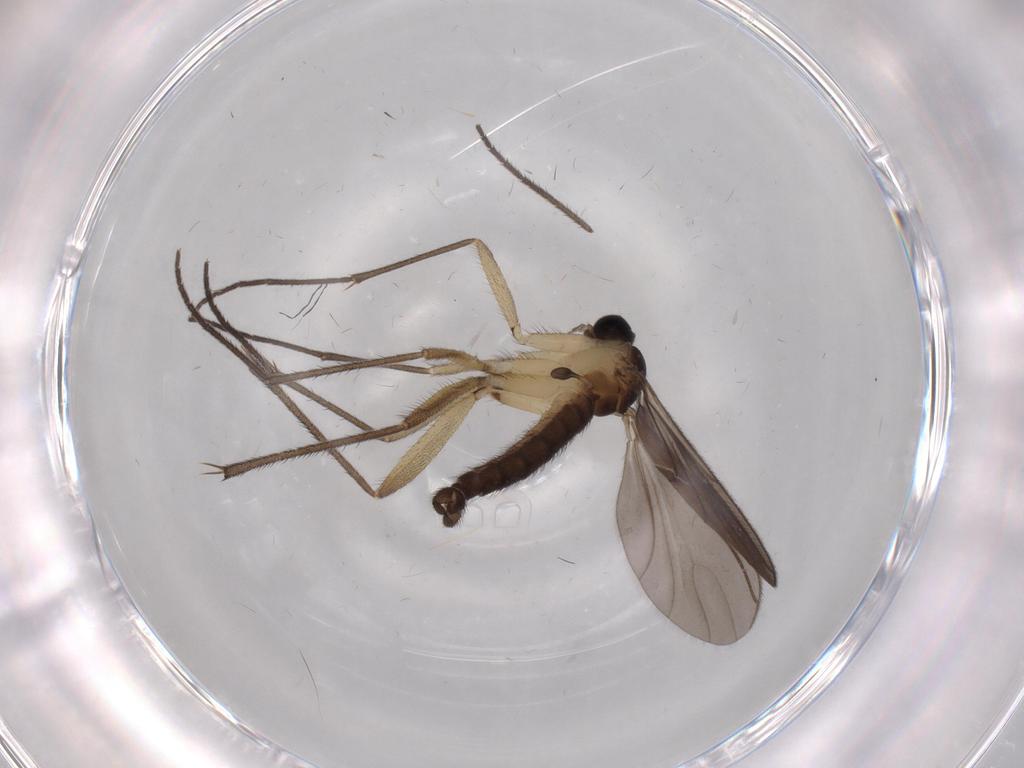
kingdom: Animalia
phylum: Arthropoda
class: Insecta
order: Diptera
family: Sciaridae
